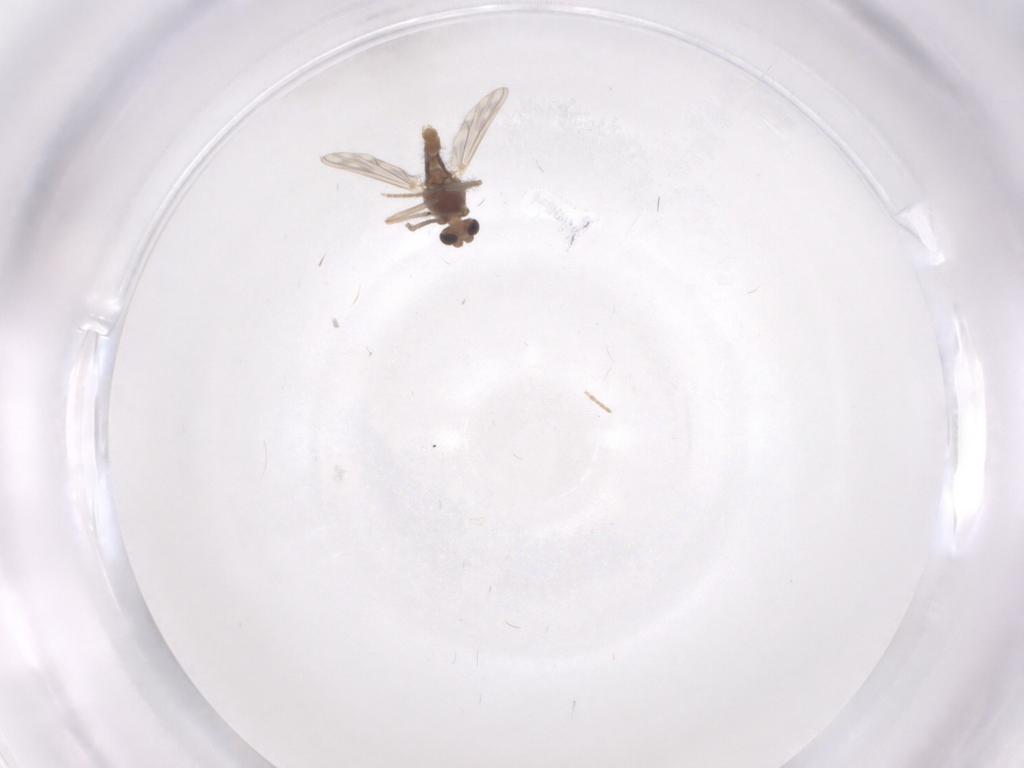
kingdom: Animalia
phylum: Arthropoda
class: Insecta
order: Diptera
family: Chironomidae
